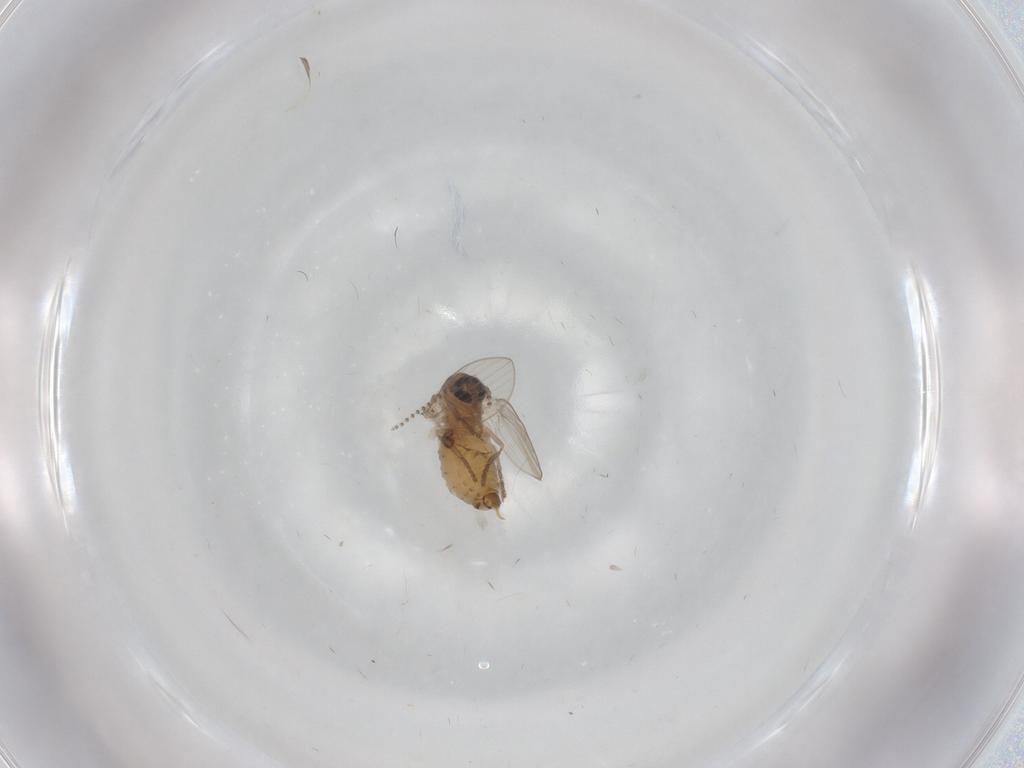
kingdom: Animalia
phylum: Arthropoda
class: Insecta
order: Diptera
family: Psychodidae
